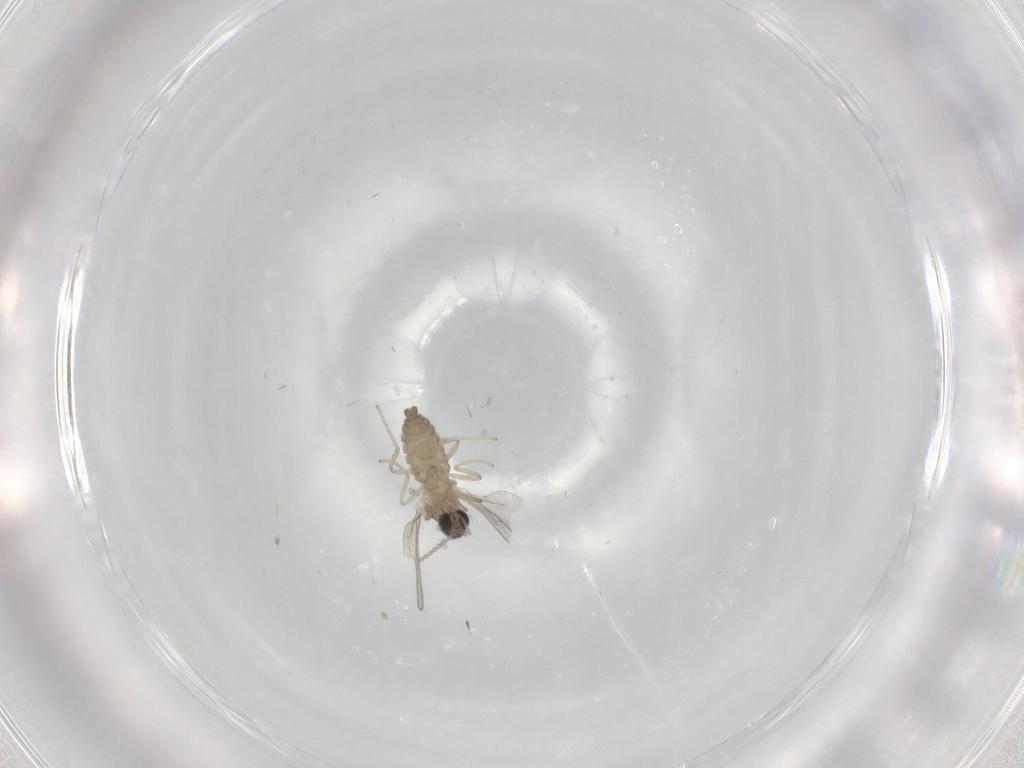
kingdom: Animalia
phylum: Arthropoda
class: Insecta
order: Diptera
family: Cecidomyiidae
